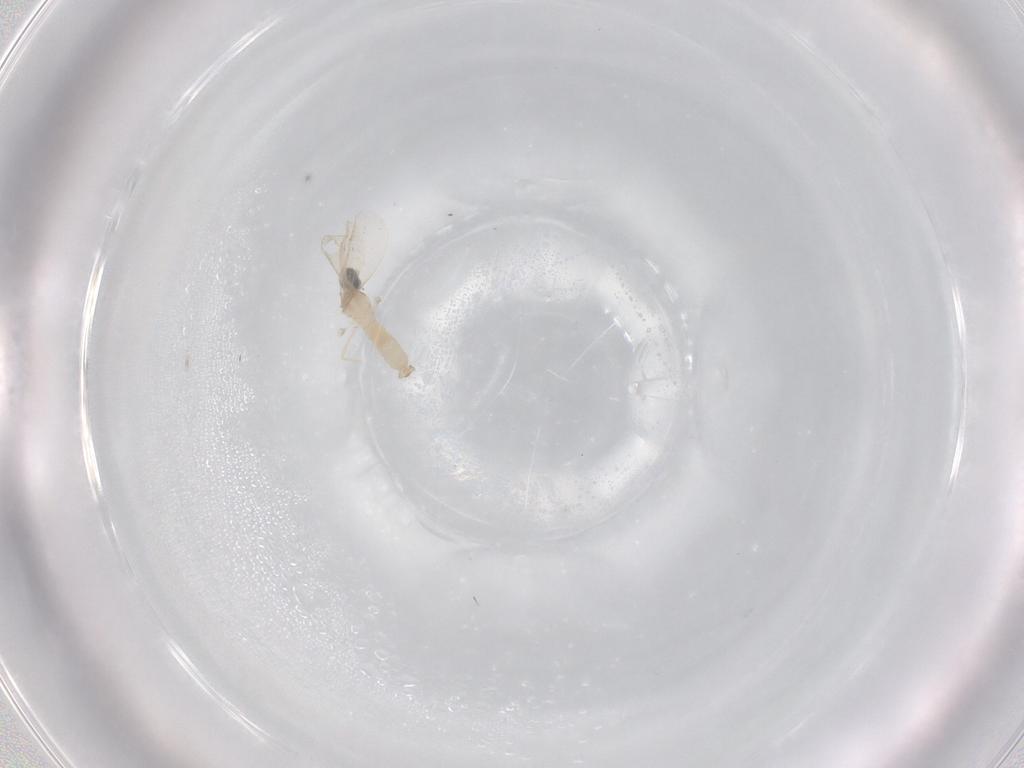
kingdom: Animalia
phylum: Arthropoda
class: Insecta
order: Diptera
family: Cecidomyiidae
